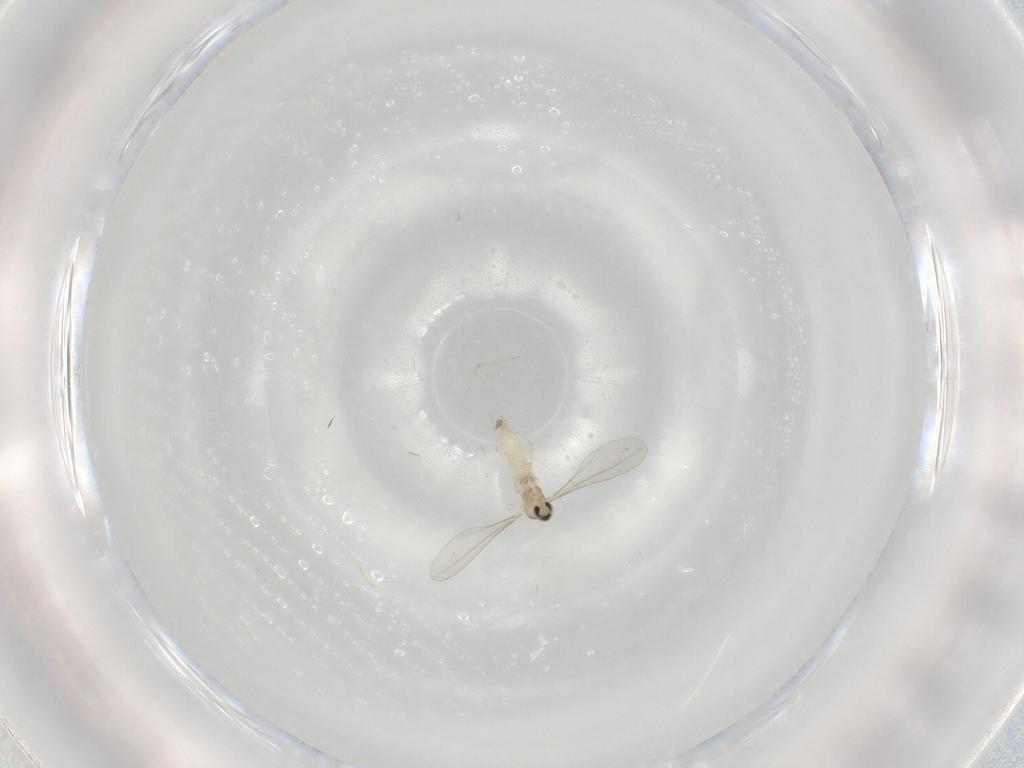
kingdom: Animalia
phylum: Arthropoda
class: Insecta
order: Diptera
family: Cecidomyiidae
